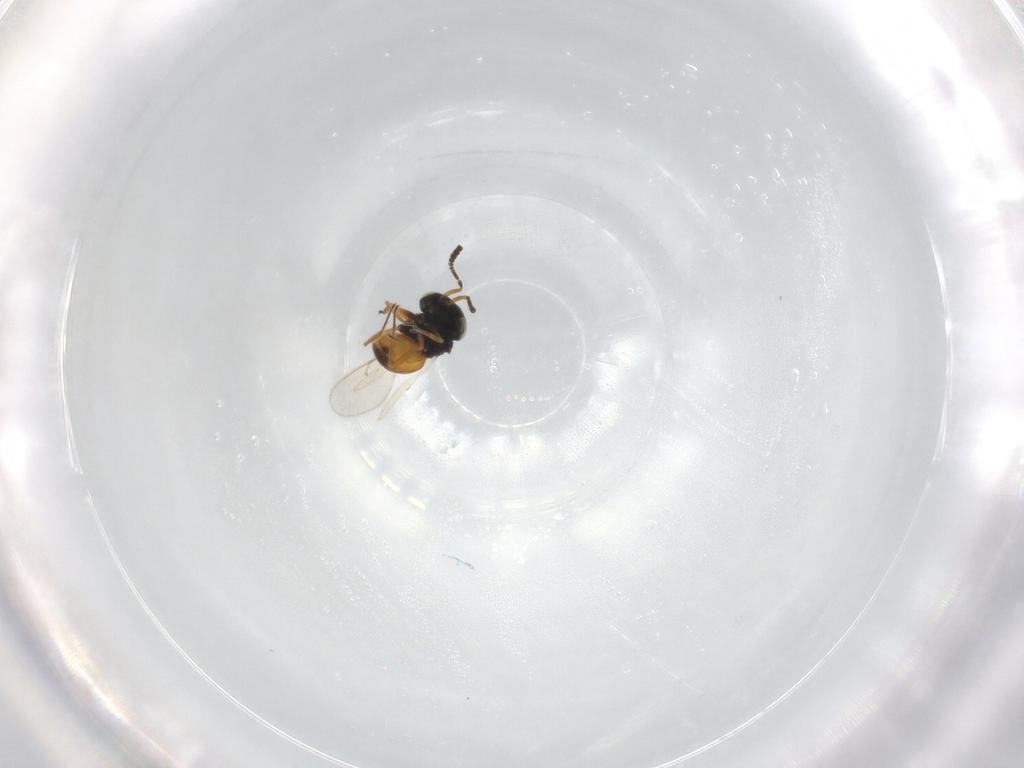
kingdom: Animalia
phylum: Arthropoda
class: Insecta
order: Hymenoptera
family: Scelionidae
